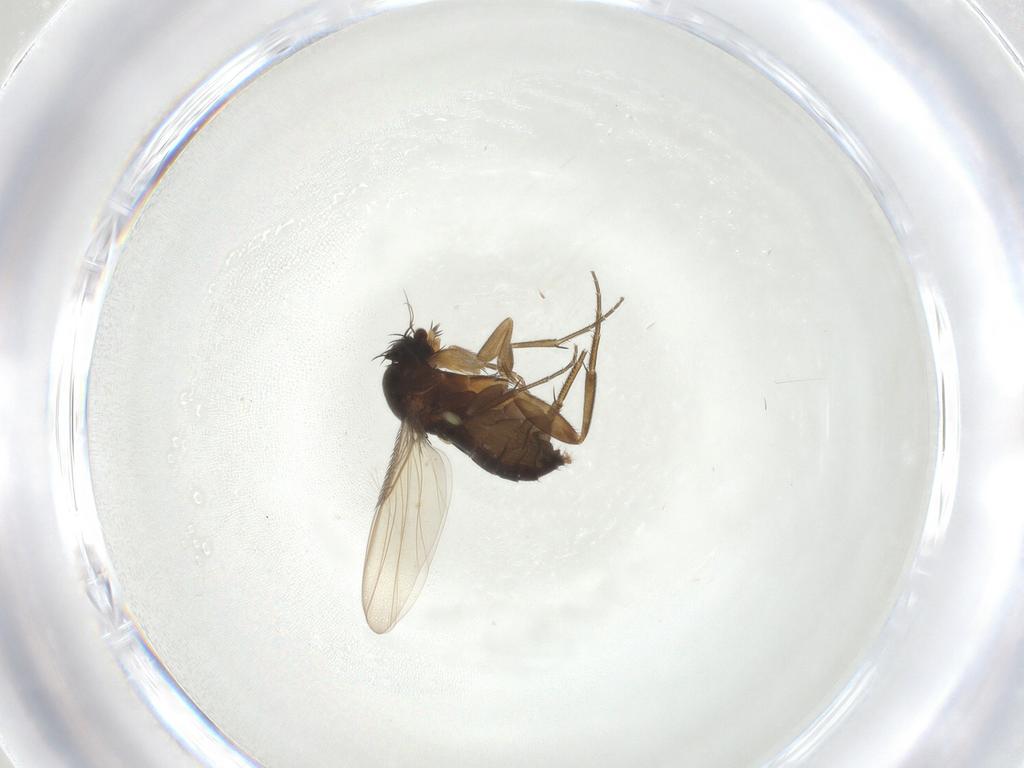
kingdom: Animalia
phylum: Arthropoda
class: Insecta
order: Diptera
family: Phoridae
